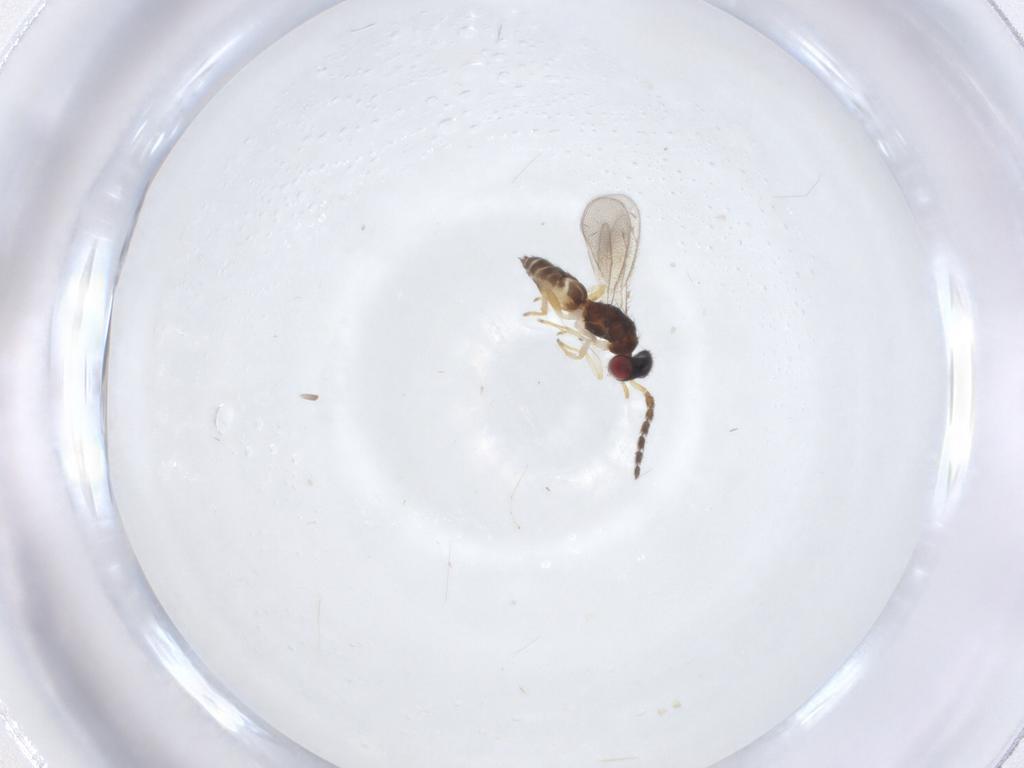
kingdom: Animalia
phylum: Arthropoda
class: Insecta
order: Hymenoptera
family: Eulophidae
